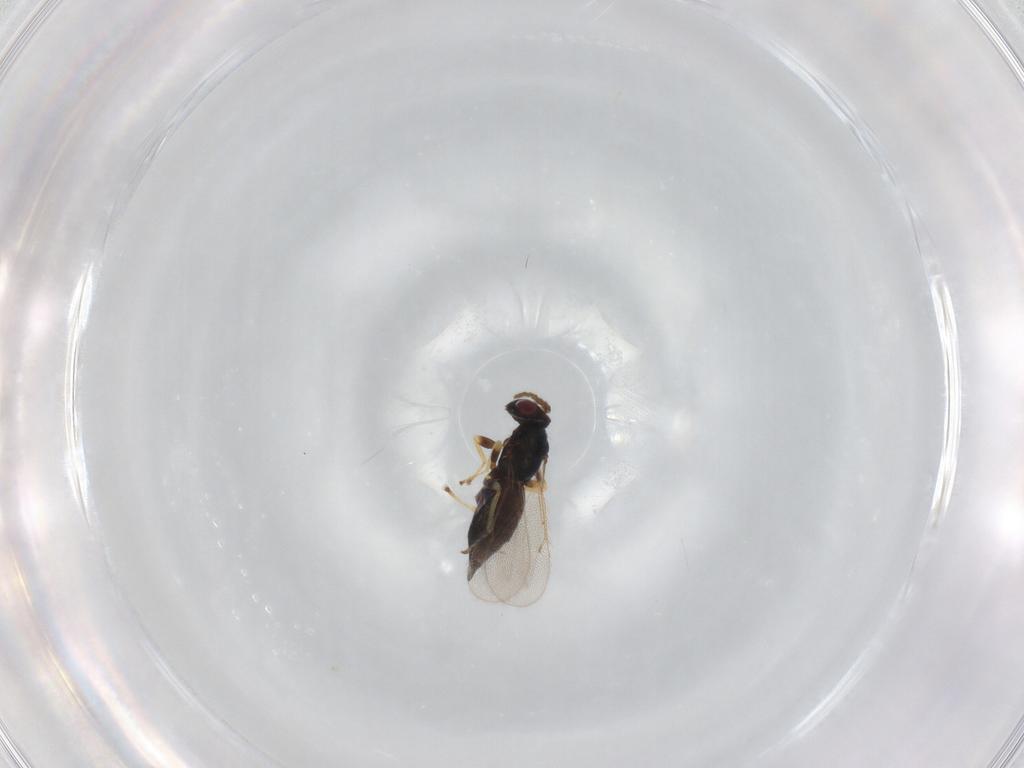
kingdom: Animalia
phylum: Arthropoda
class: Insecta
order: Hymenoptera
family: Eulophidae
